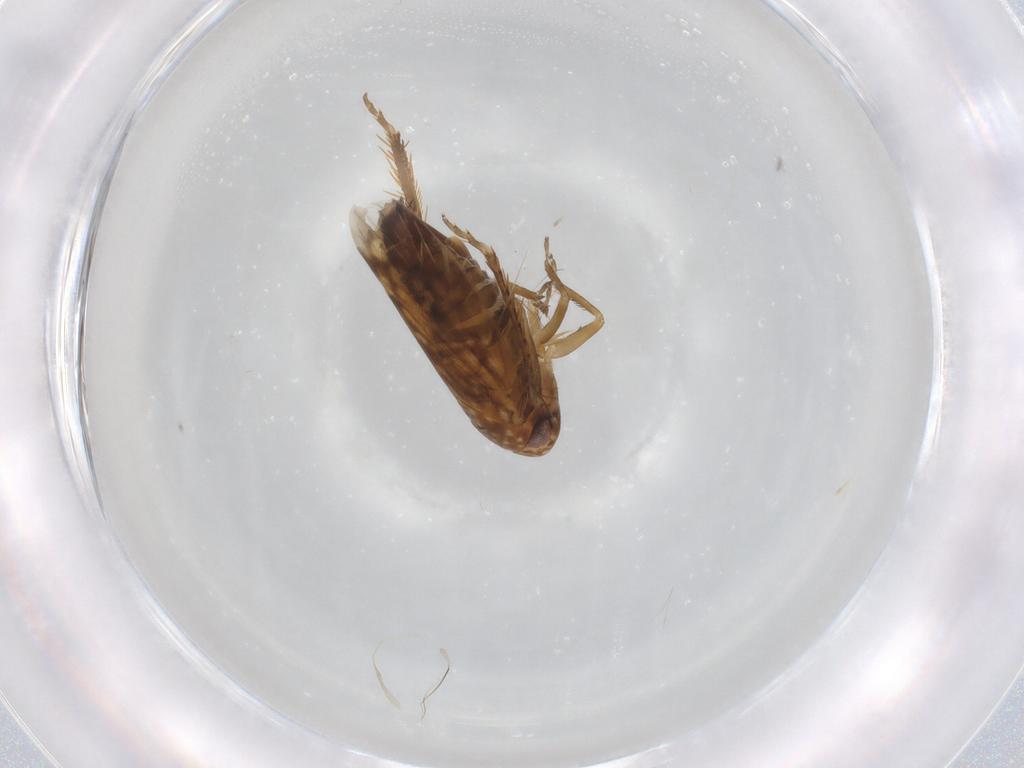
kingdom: Animalia
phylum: Arthropoda
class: Insecta
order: Hemiptera
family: Cicadellidae
